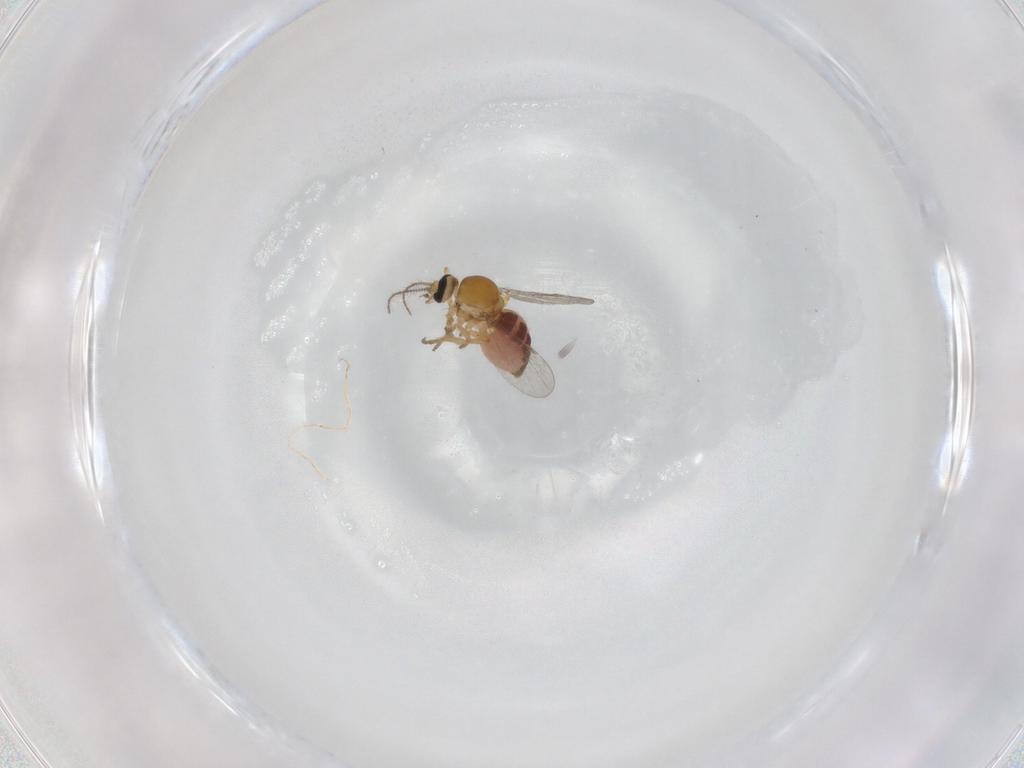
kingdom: Animalia
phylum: Arthropoda
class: Insecta
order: Diptera
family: Ceratopogonidae
